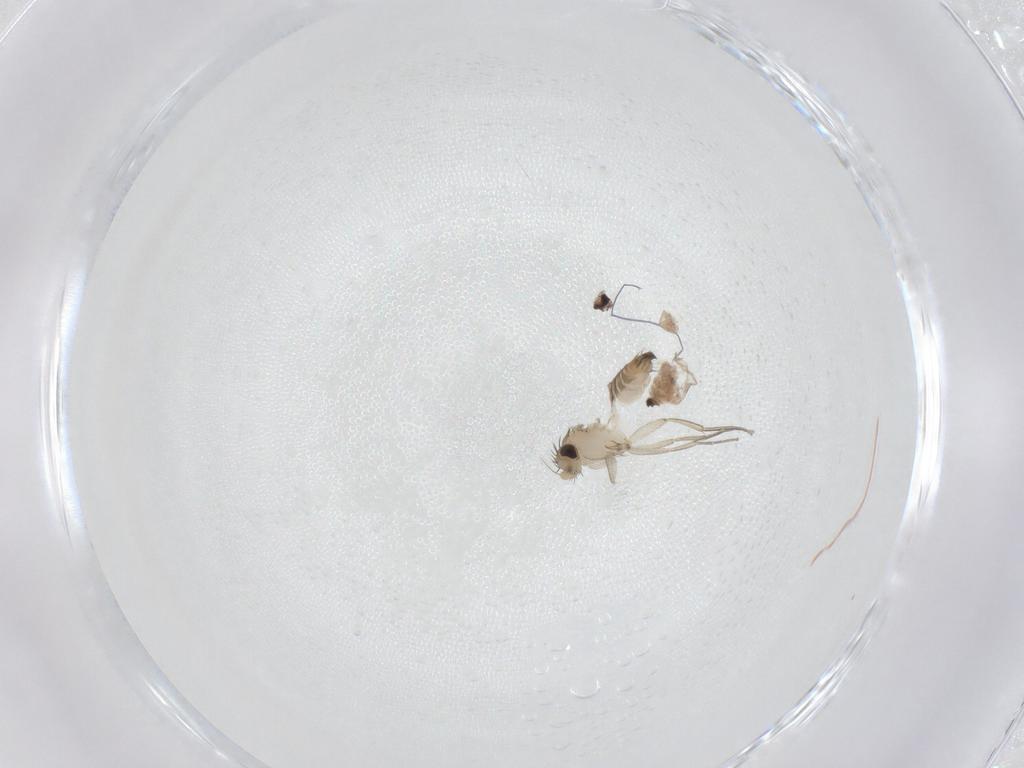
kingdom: Animalia
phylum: Arthropoda
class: Insecta
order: Diptera
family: Phoridae
